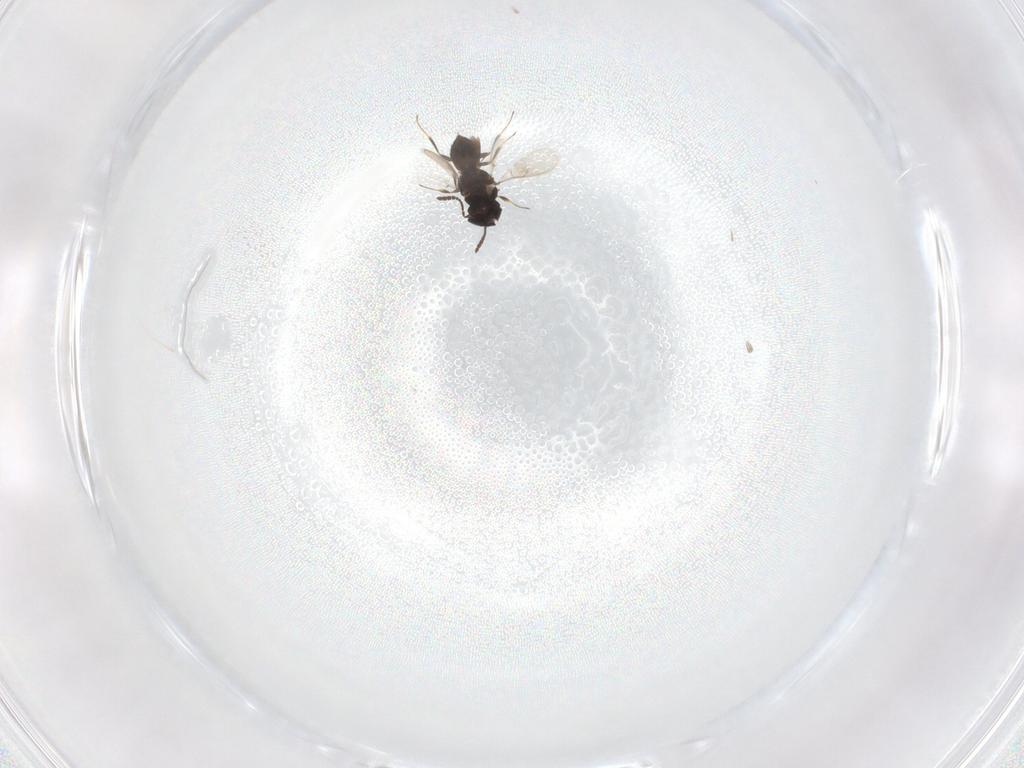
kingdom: Animalia
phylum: Arthropoda
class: Insecta
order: Hymenoptera
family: Scelionidae
